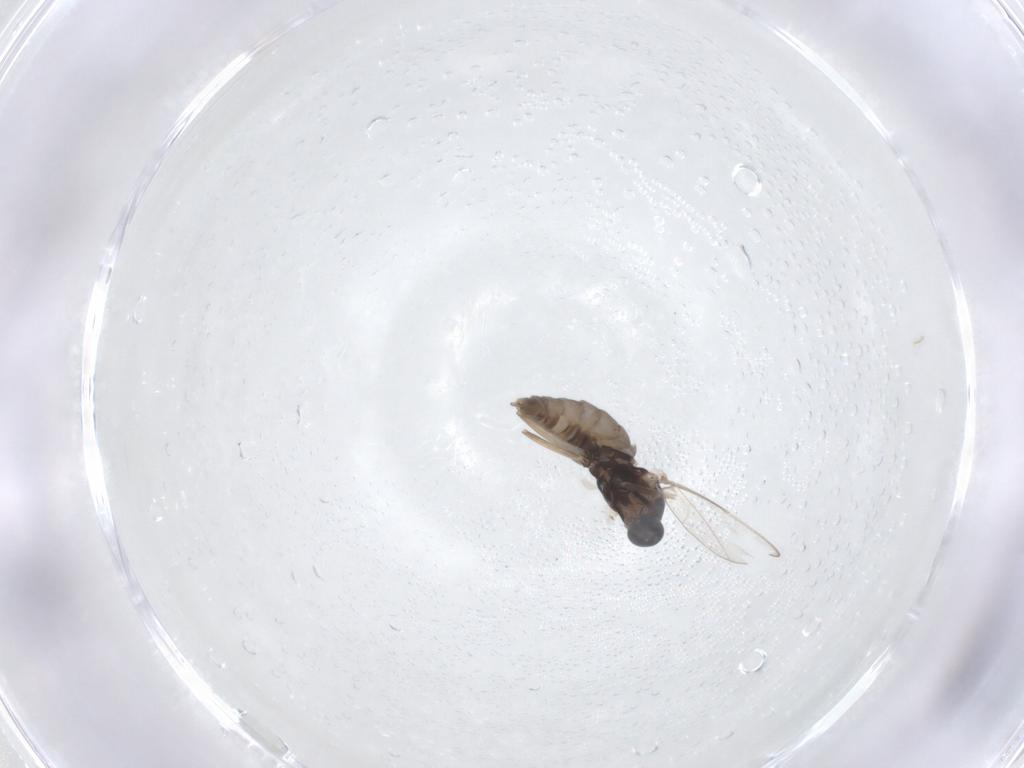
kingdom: Animalia
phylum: Arthropoda
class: Insecta
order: Diptera
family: Cecidomyiidae
